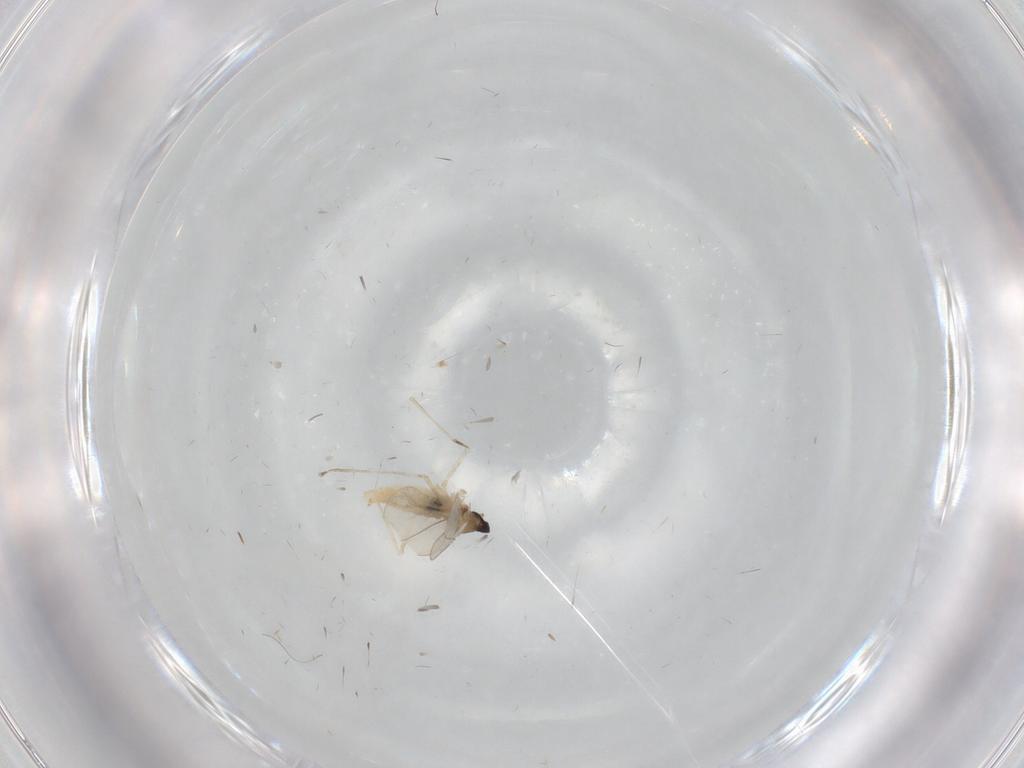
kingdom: Animalia
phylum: Arthropoda
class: Insecta
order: Diptera
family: Cecidomyiidae
